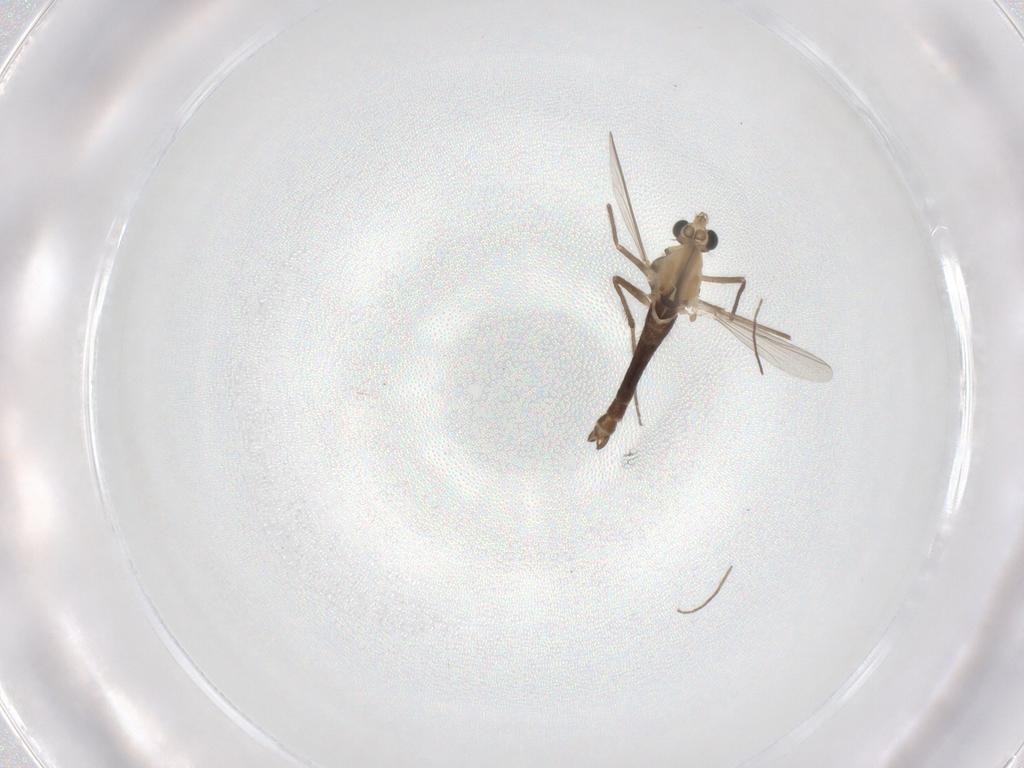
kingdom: Animalia
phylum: Arthropoda
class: Insecta
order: Diptera
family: Chironomidae
